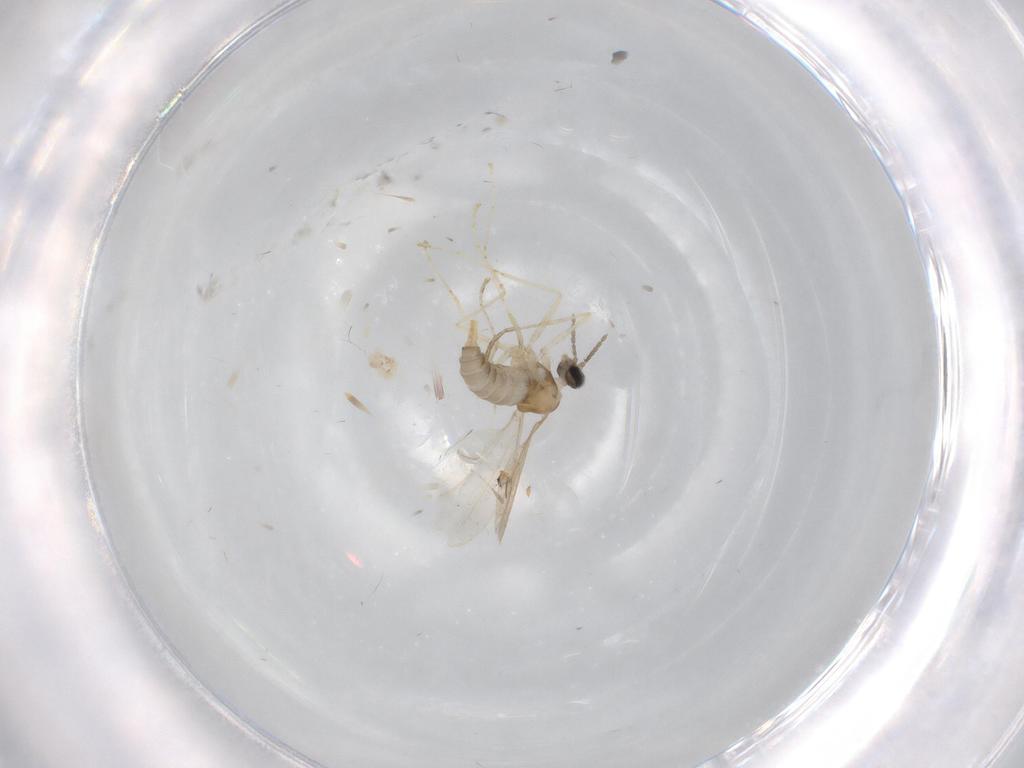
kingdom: Animalia
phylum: Arthropoda
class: Insecta
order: Diptera
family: Cecidomyiidae
